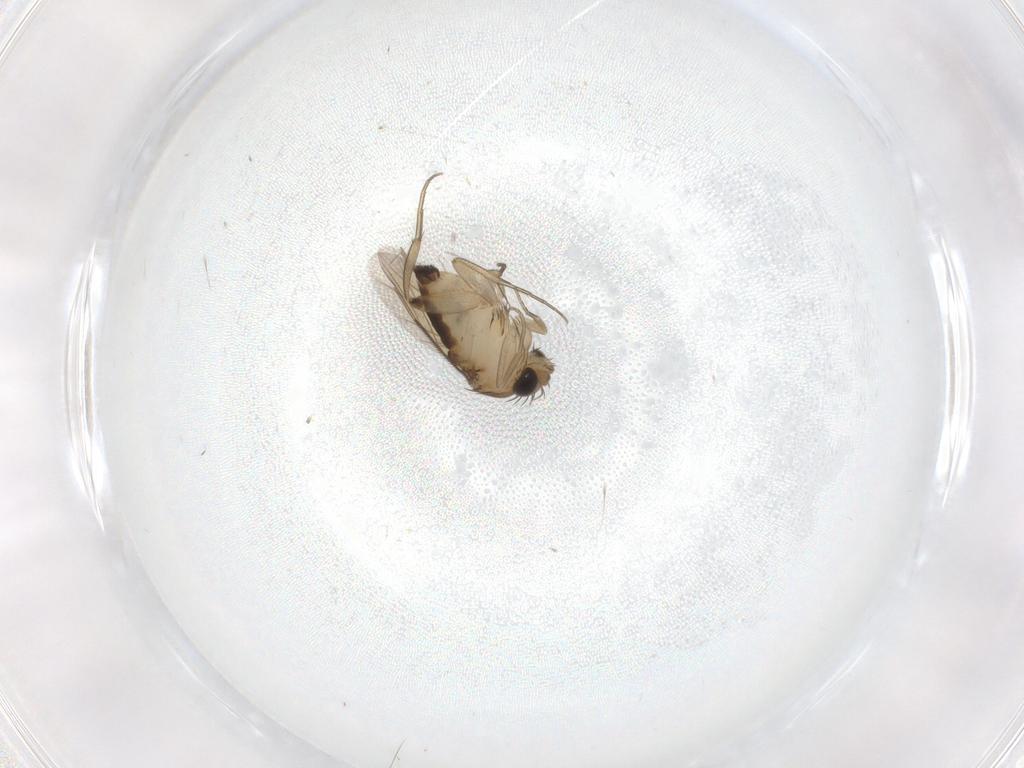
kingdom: Animalia
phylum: Arthropoda
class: Insecta
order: Diptera
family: Phoridae
